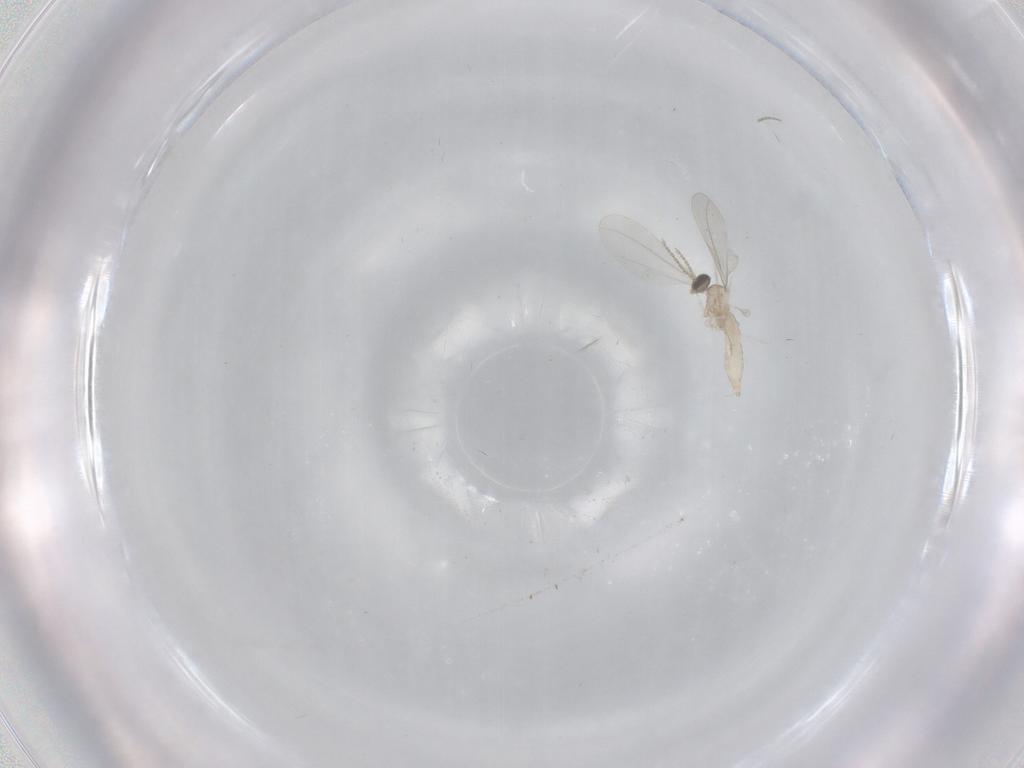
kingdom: Animalia
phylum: Arthropoda
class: Insecta
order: Diptera
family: Cecidomyiidae
